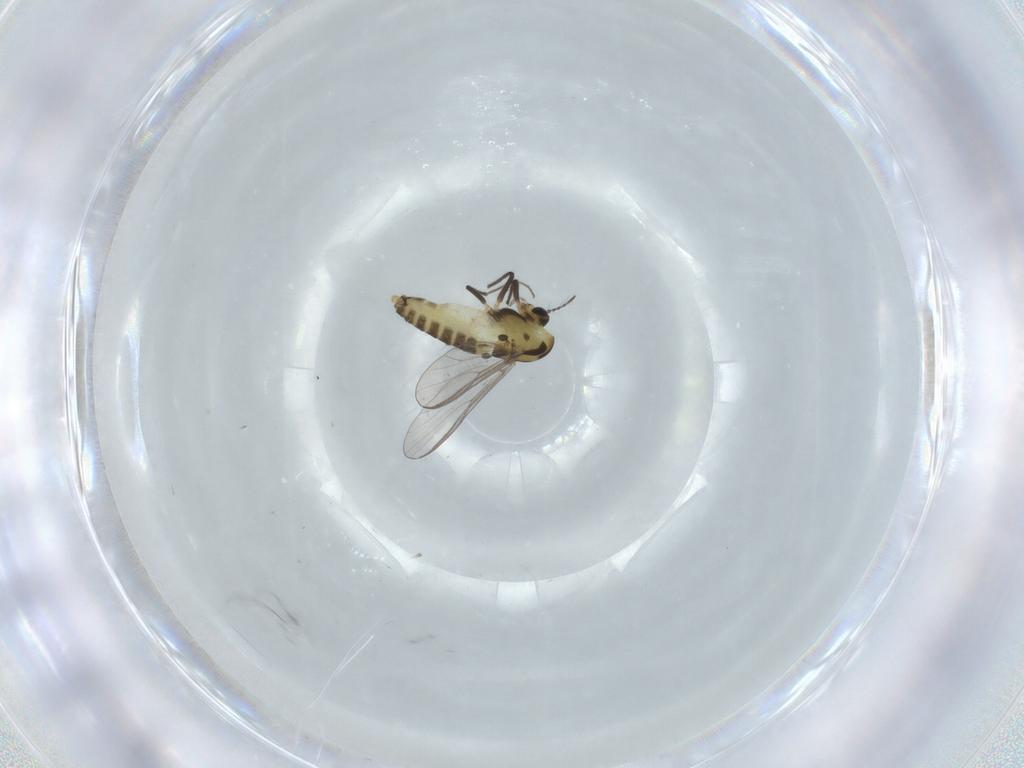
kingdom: Animalia
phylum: Arthropoda
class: Insecta
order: Diptera
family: Chironomidae
